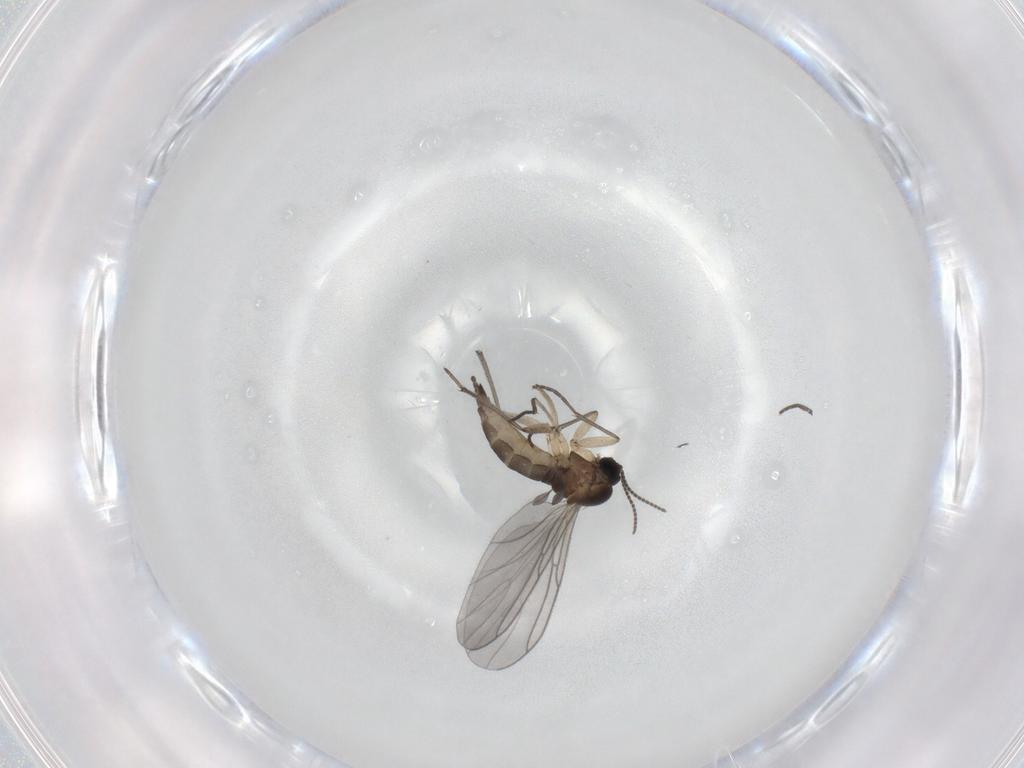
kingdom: Animalia
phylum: Arthropoda
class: Insecta
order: Diptera
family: Sciaridae
